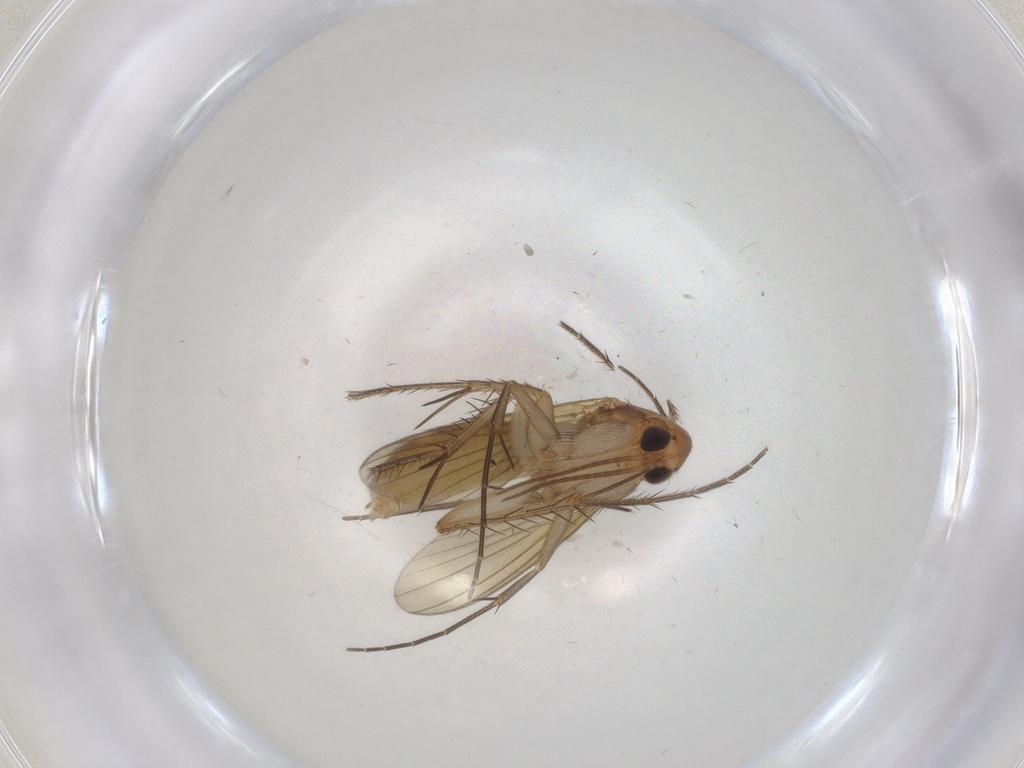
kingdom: Animalia
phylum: Arthropoda
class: Insecta
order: Diptera
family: Mycetophilidae
